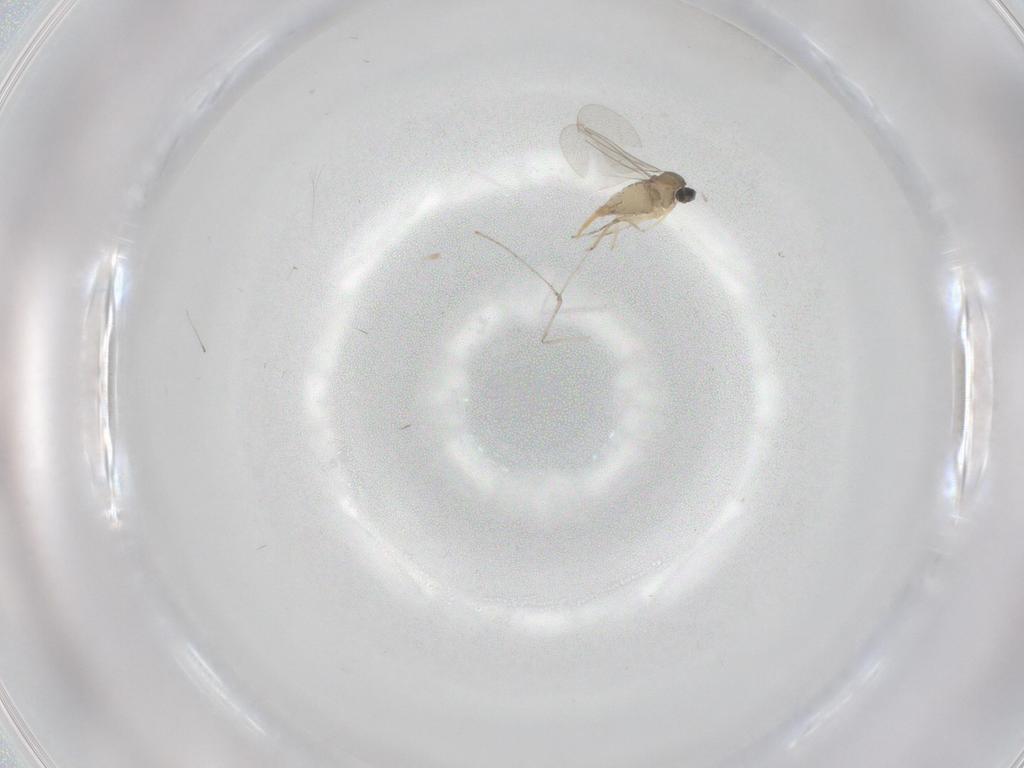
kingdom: Animalia
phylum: Arthropoda
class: Insecta
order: Diptera
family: Cecidomyiidae
